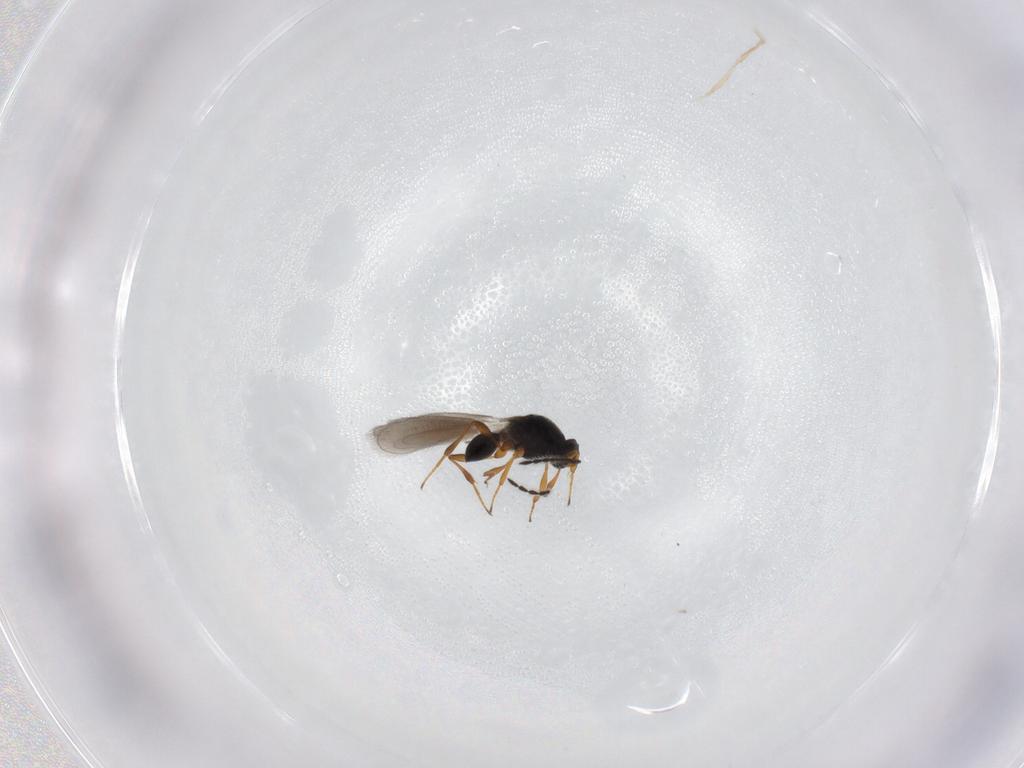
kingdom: Animalia
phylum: Arthropoda
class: Insecta
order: Hymenoptera
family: Platygastridae
